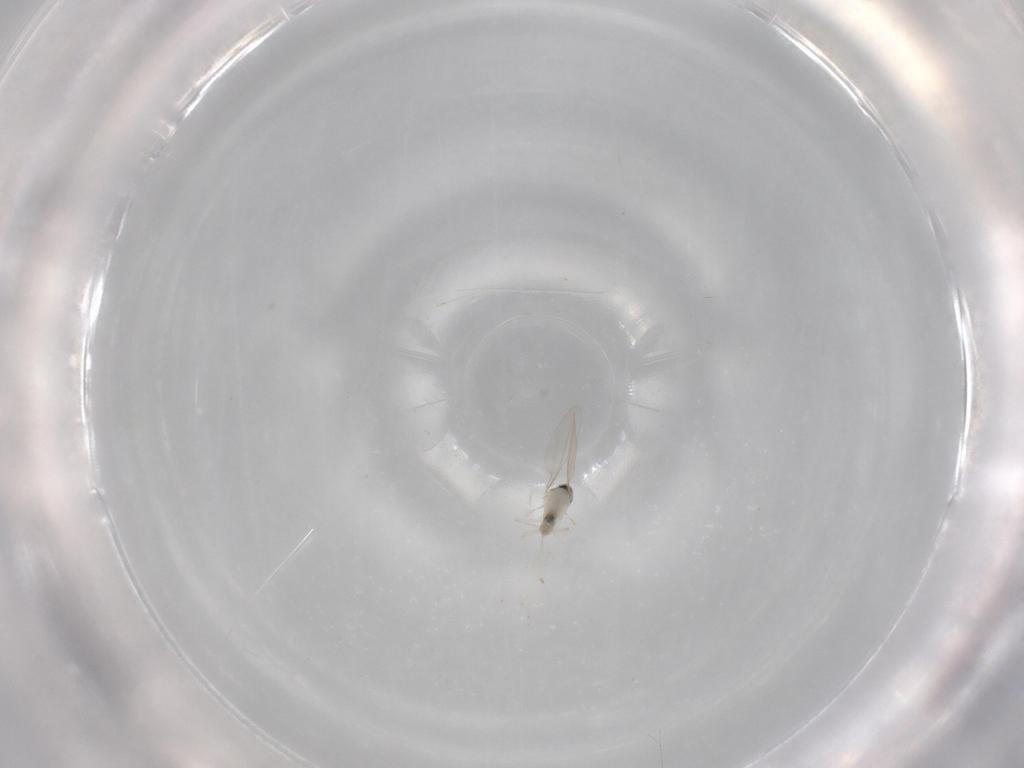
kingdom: Animalia
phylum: Arthropoda
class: Insecta
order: Diptera
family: Cecidomyiidae
